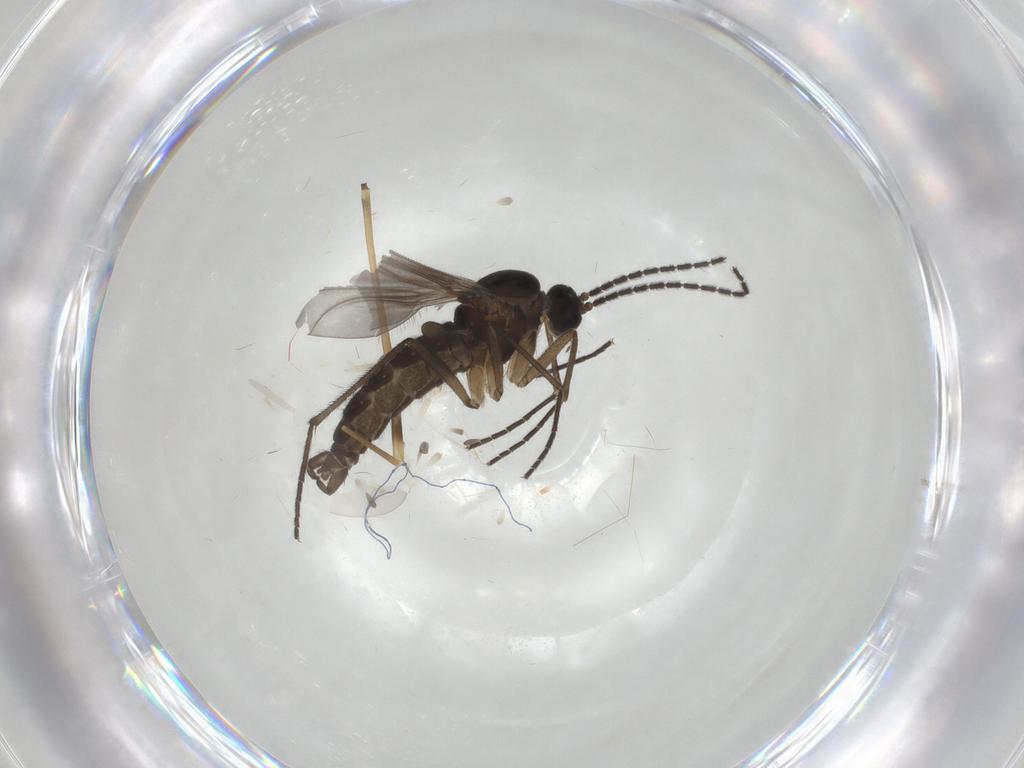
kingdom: Animalia
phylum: Arthropoda
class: Insecta
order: Diptera
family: Sciaridae
